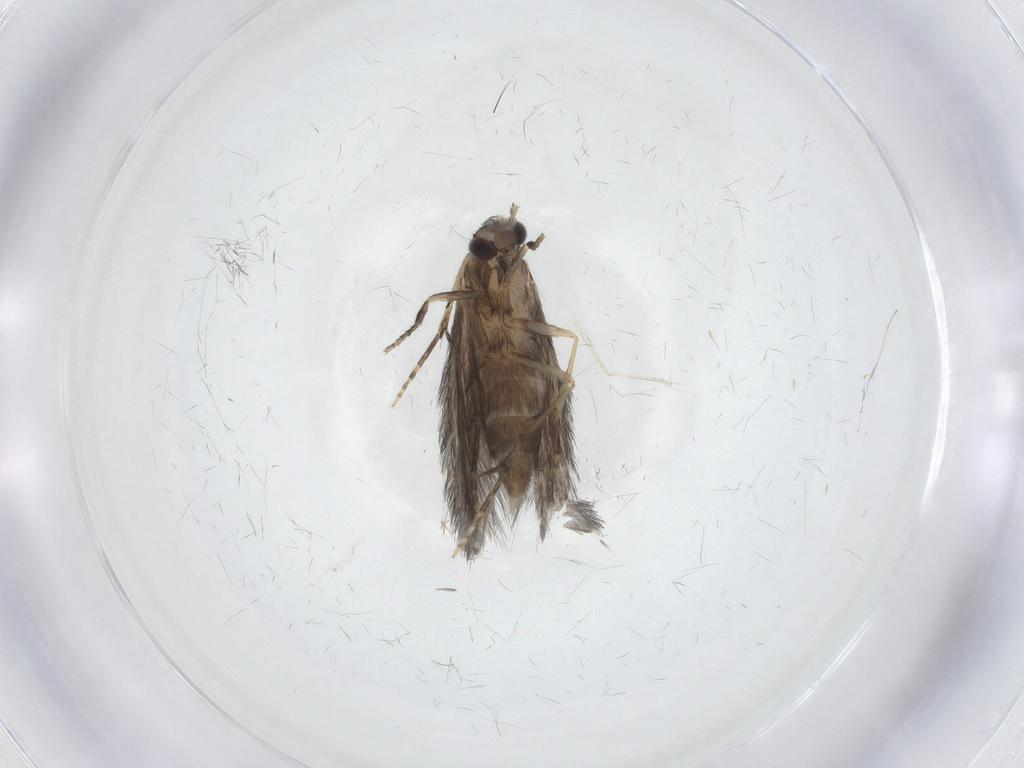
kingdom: Animalia
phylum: Arthropoda
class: Insecta
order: Trichoptera
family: Hydroptilidae
